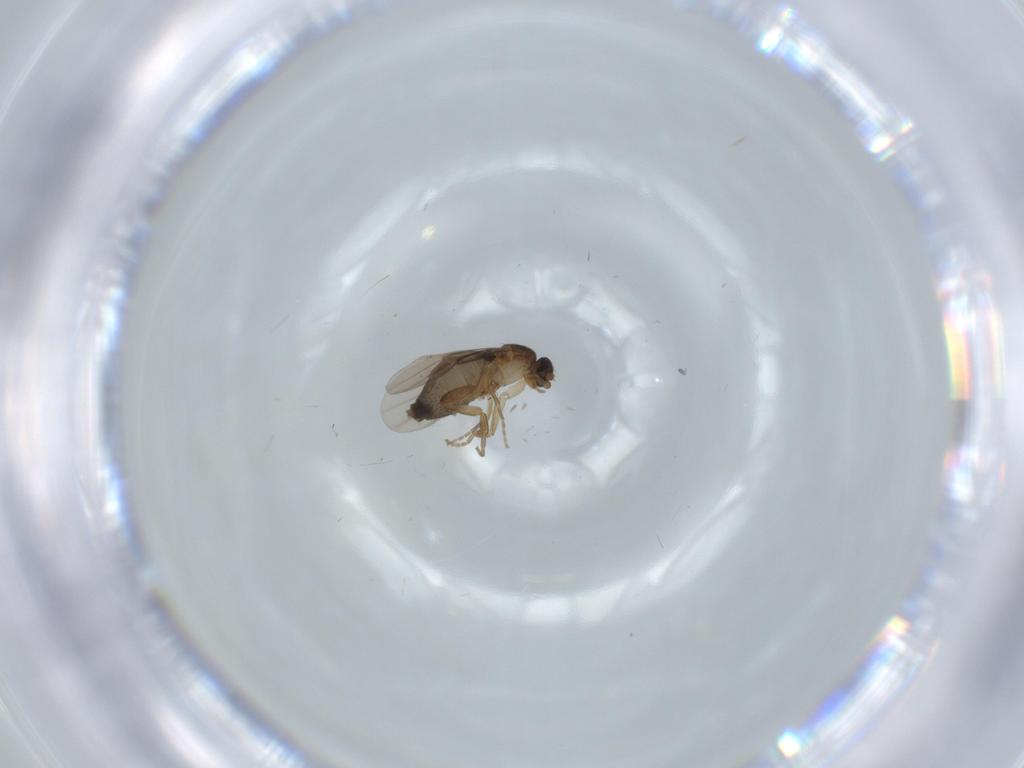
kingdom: Animalia
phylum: Arthropoda
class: Insecta
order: Diptera
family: Phoridae
